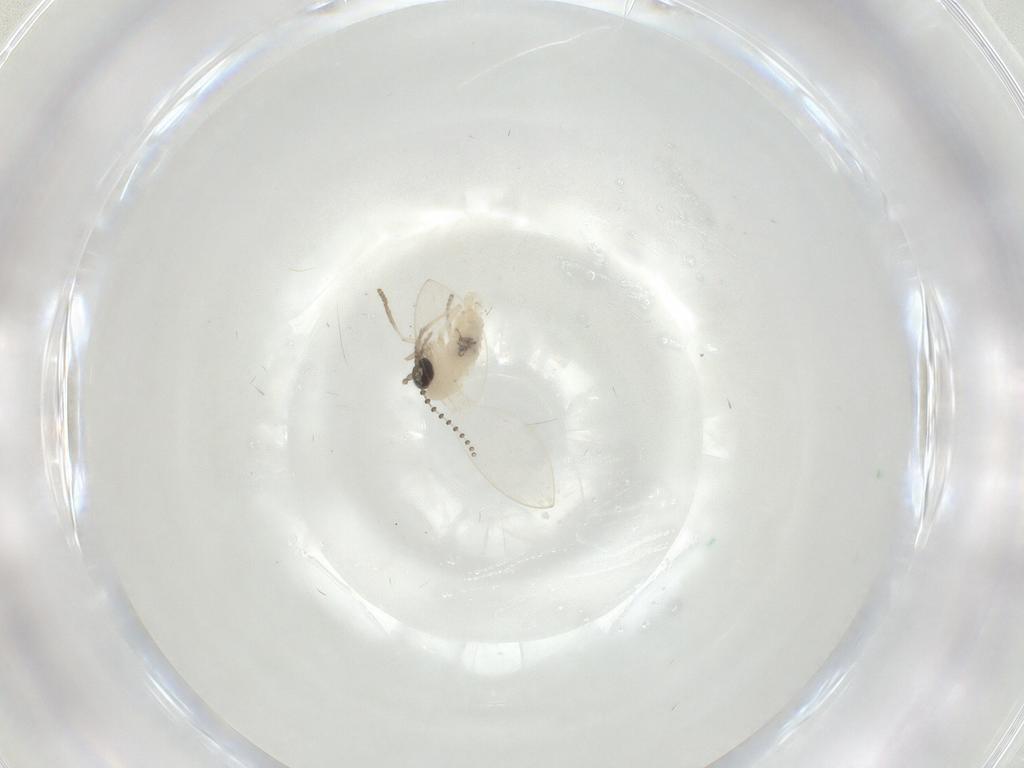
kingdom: Animalia
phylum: Arthropoda
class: Insecta
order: Diptera
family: Psychodidae
